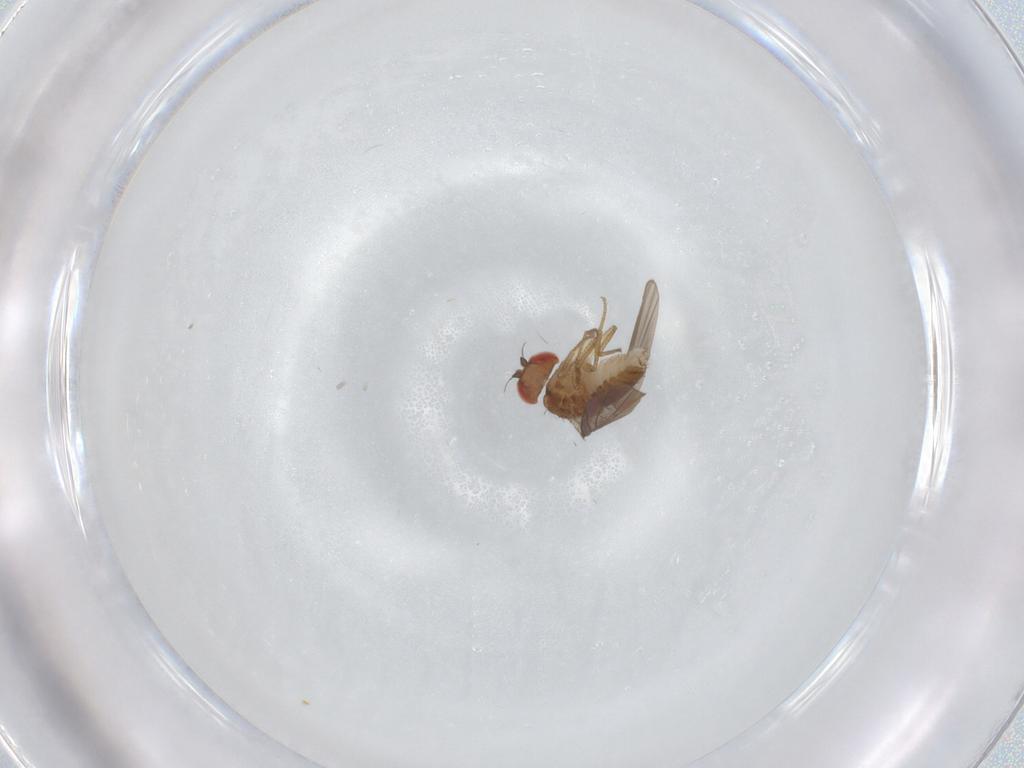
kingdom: Animalia
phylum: Arthropoda
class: Insecta
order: Diptera
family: Drosophilidae
